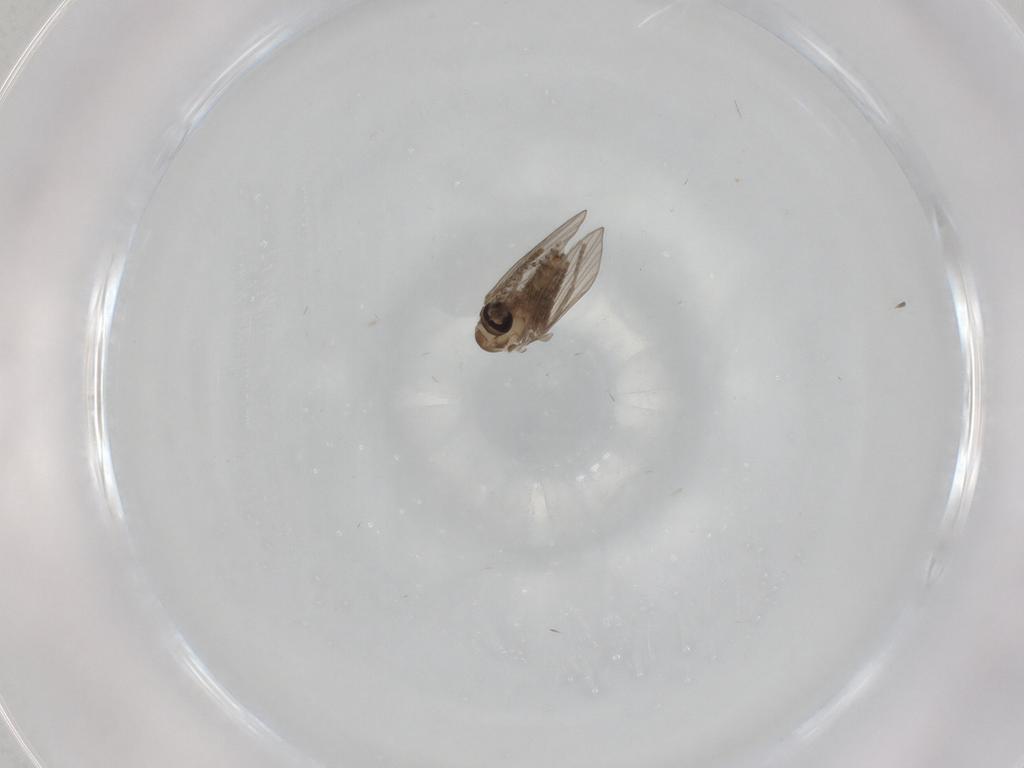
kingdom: Animalia
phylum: Arthropoda
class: Insecta
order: Diptera
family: Psychodidae
